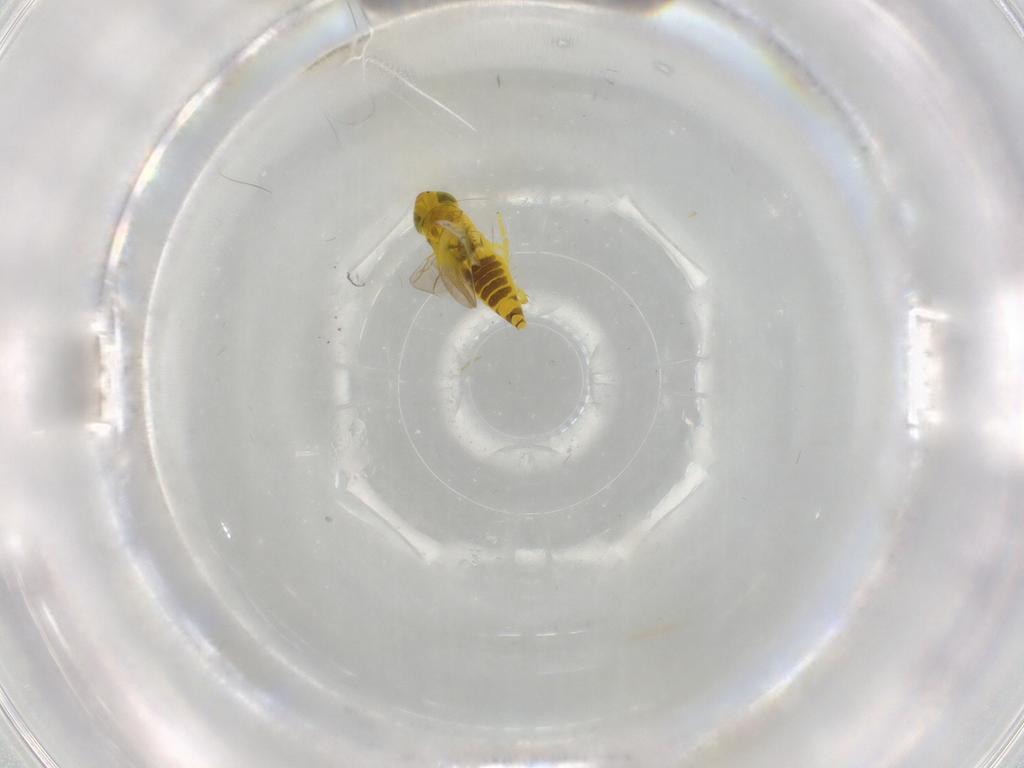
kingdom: Animalia
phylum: Arthropoda
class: Insecta
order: Hemiptera
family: Cicadellidae
